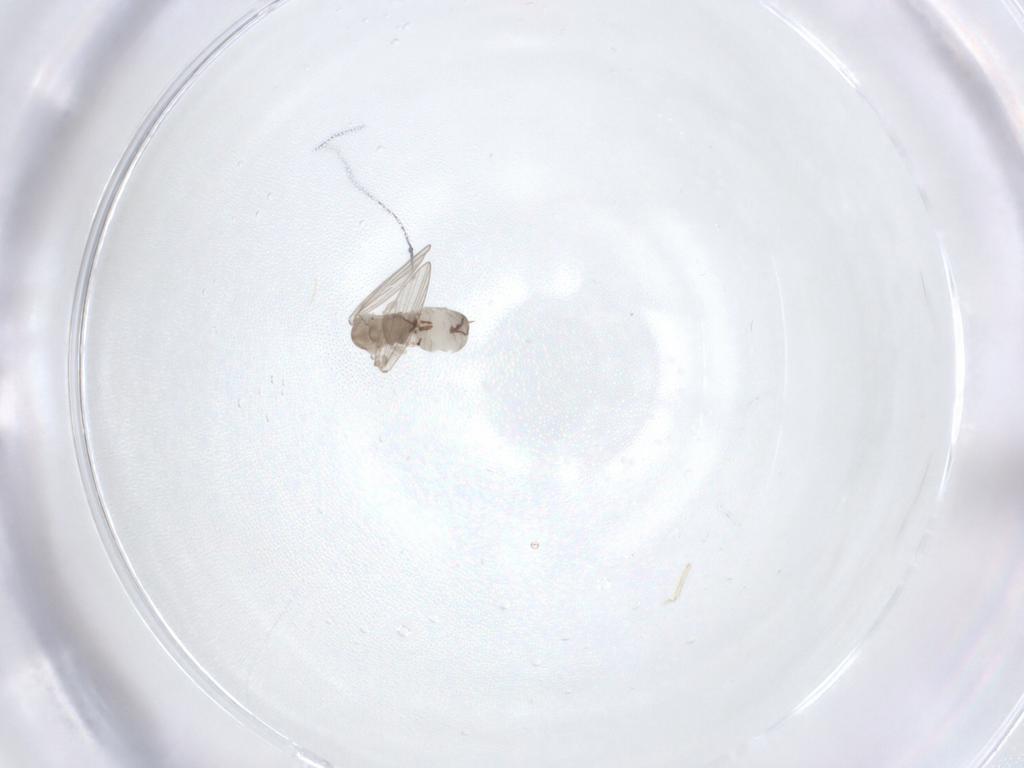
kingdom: Animalia
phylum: Arthropoda
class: Insecta
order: Diptera
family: Psychodidae
